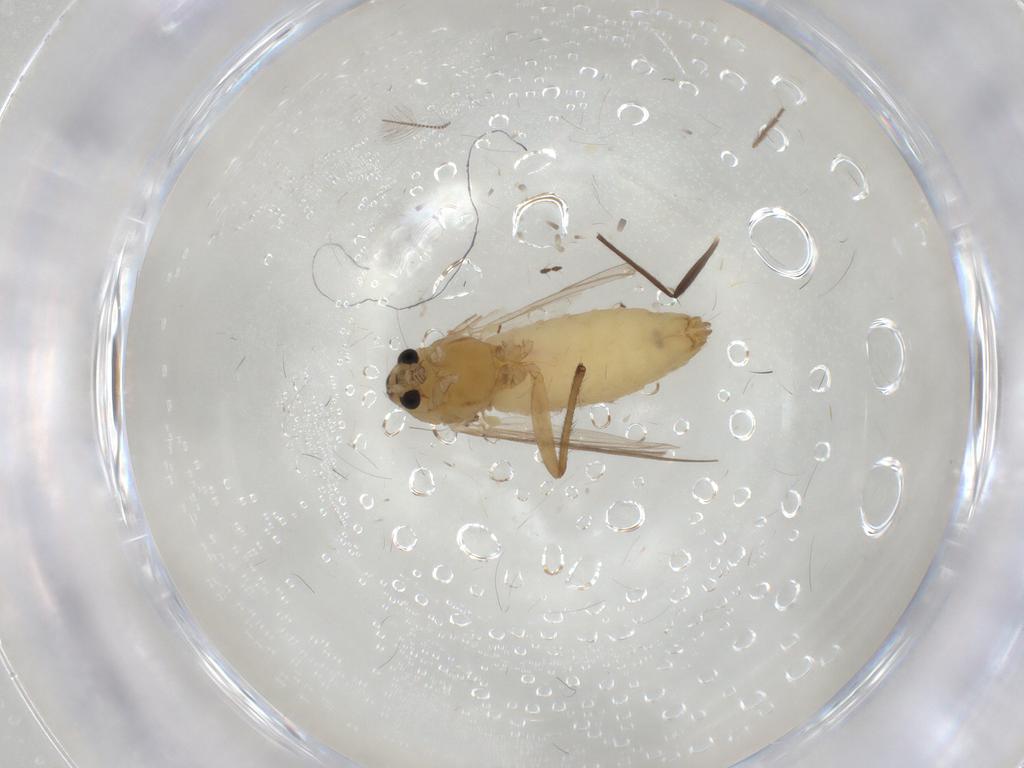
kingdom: Animalia
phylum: Arthropoda
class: Insecta
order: Diptera
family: Chironomidae
